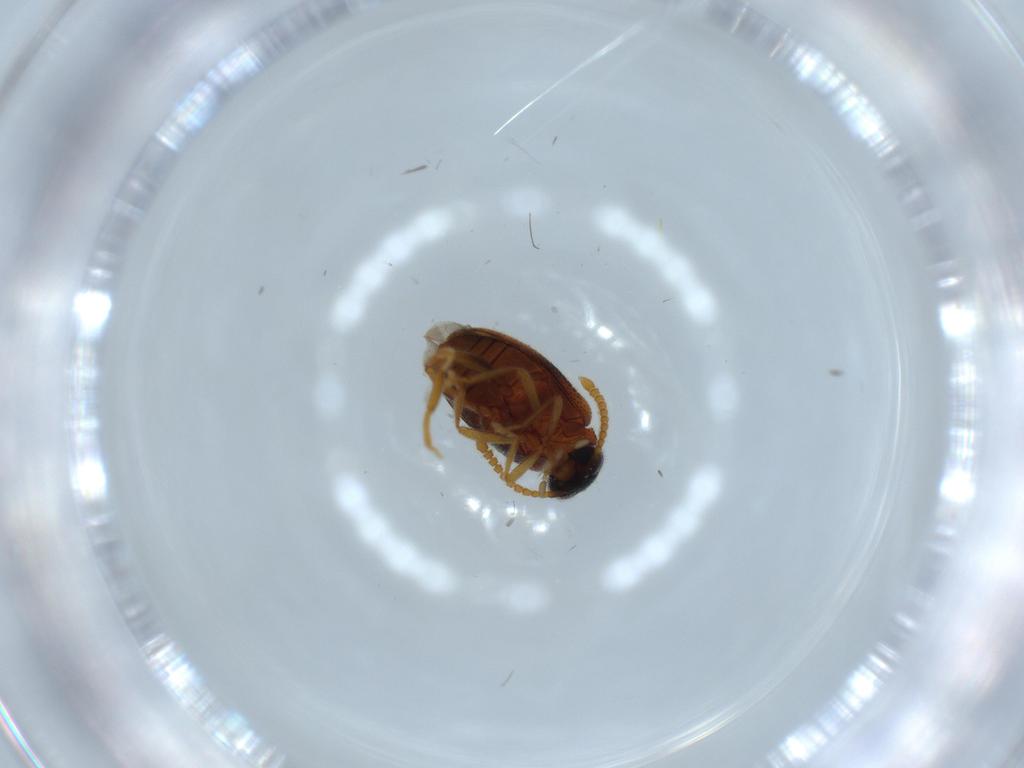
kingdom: Animalia
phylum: Arthropoda
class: Insecta
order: Coleoptera
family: Aderidae
